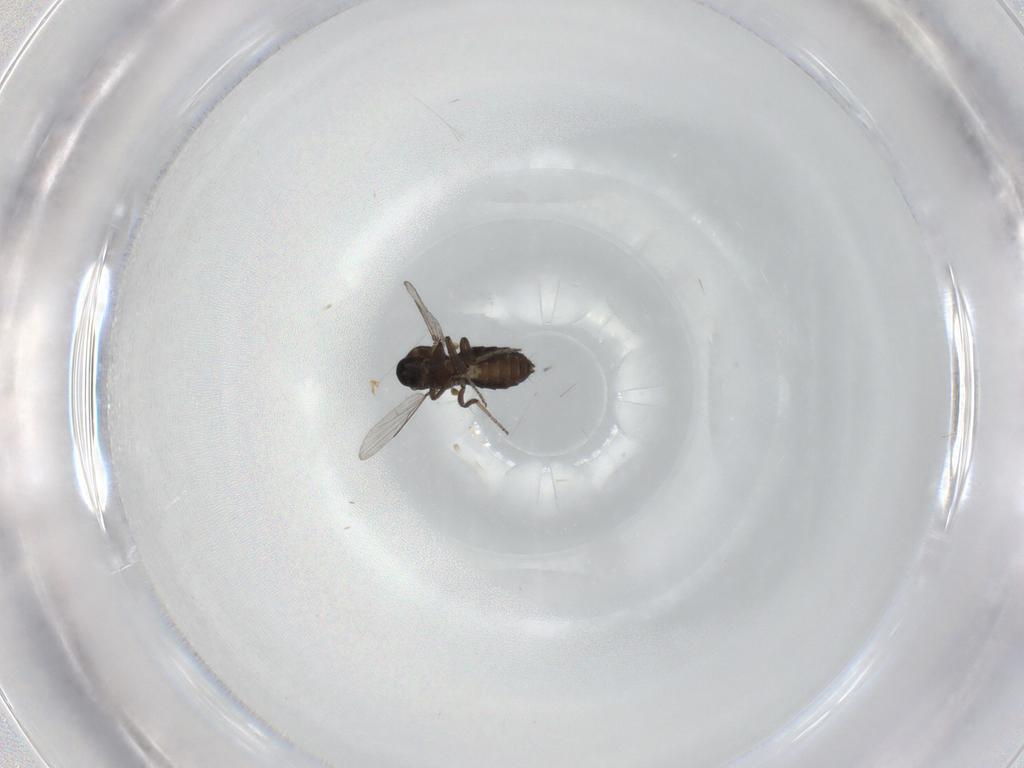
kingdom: Animalia
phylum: Arthropoda
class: Insecta
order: Diptera
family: Ceratopogonidae
